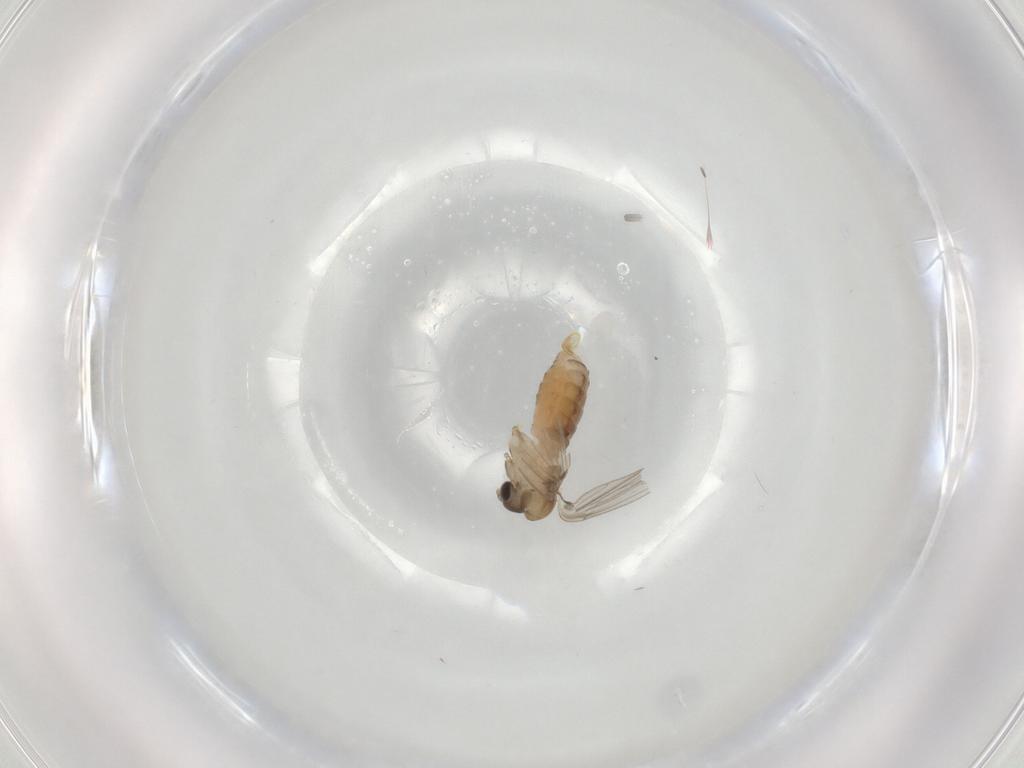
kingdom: Animalia
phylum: Arthropoda
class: Insecta
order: Diptera
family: Psychodidae
